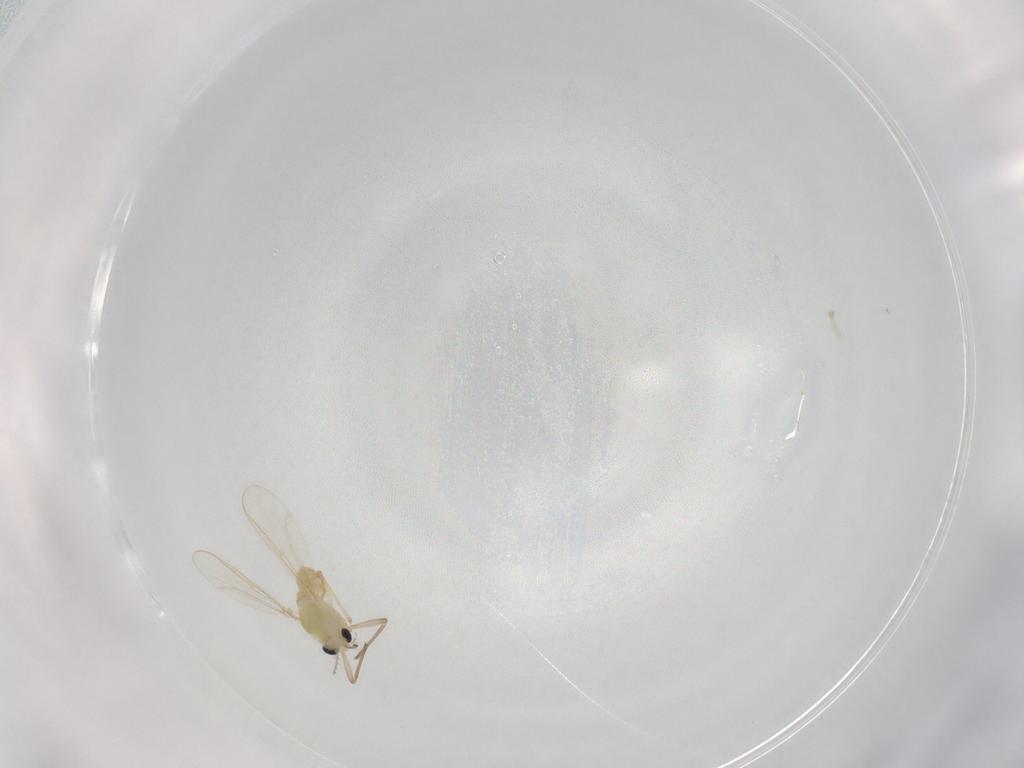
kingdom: Animalia
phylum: Arthropoda
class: Insecta
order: Diptera
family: Chironomidae
